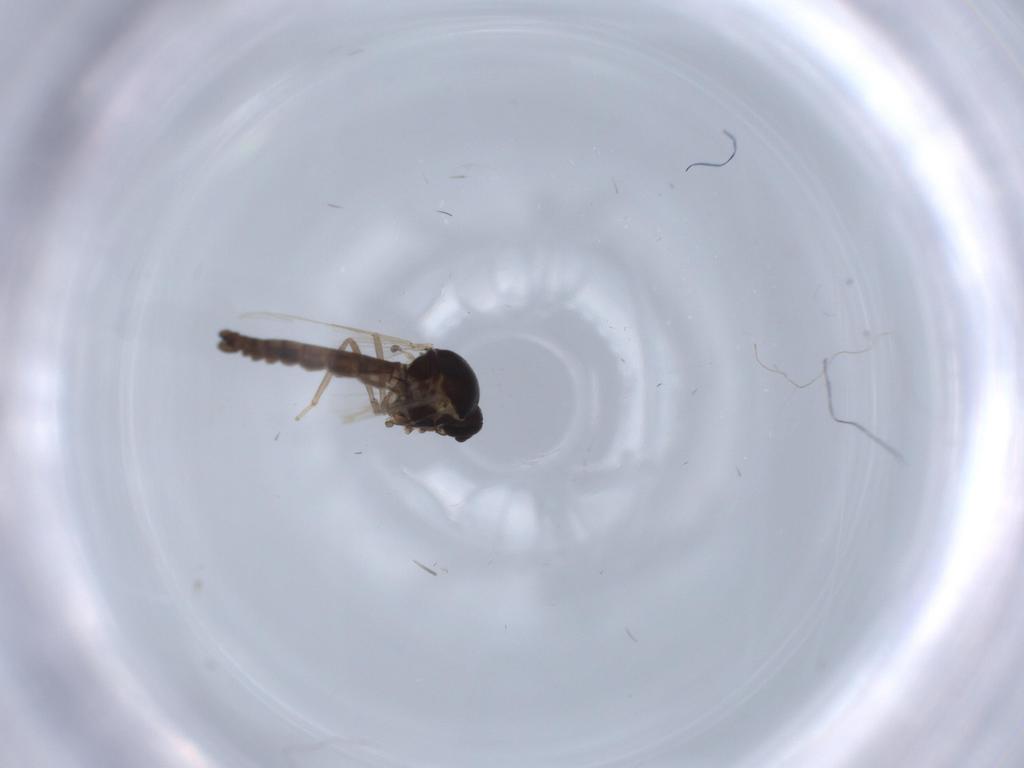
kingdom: Animalia
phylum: Arthropoda
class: Insecta
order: Diptera
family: Ceratopogonidae
